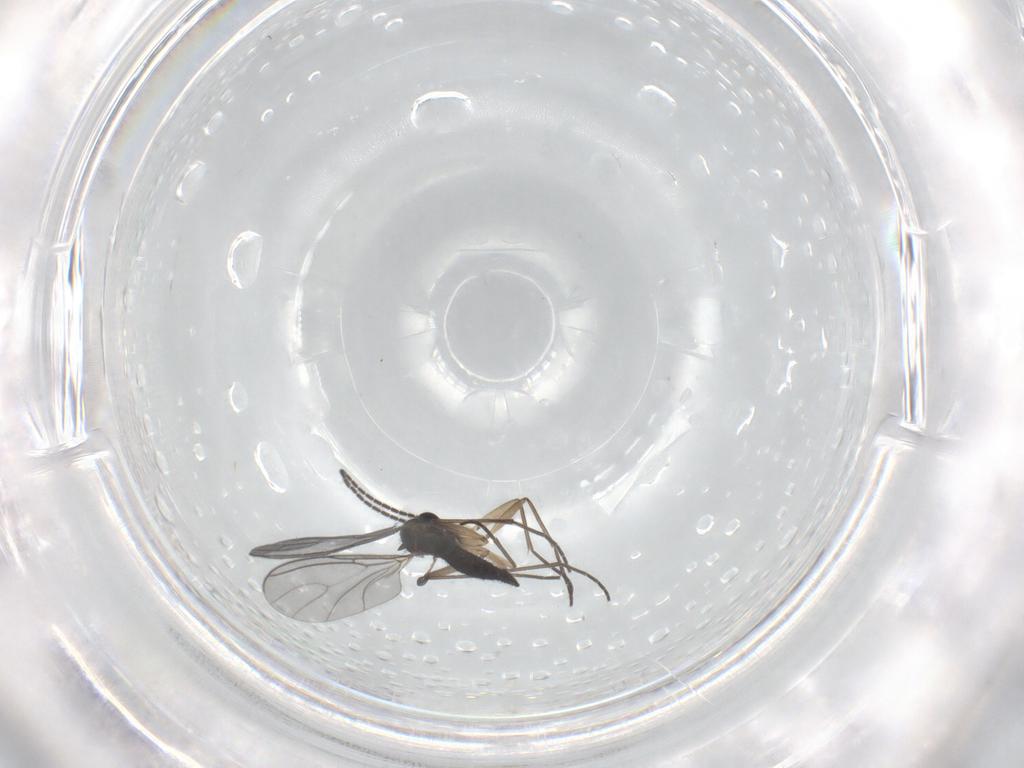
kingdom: Animalia
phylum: Arthropoda
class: Insecta
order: Diptera
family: Sciaridae
